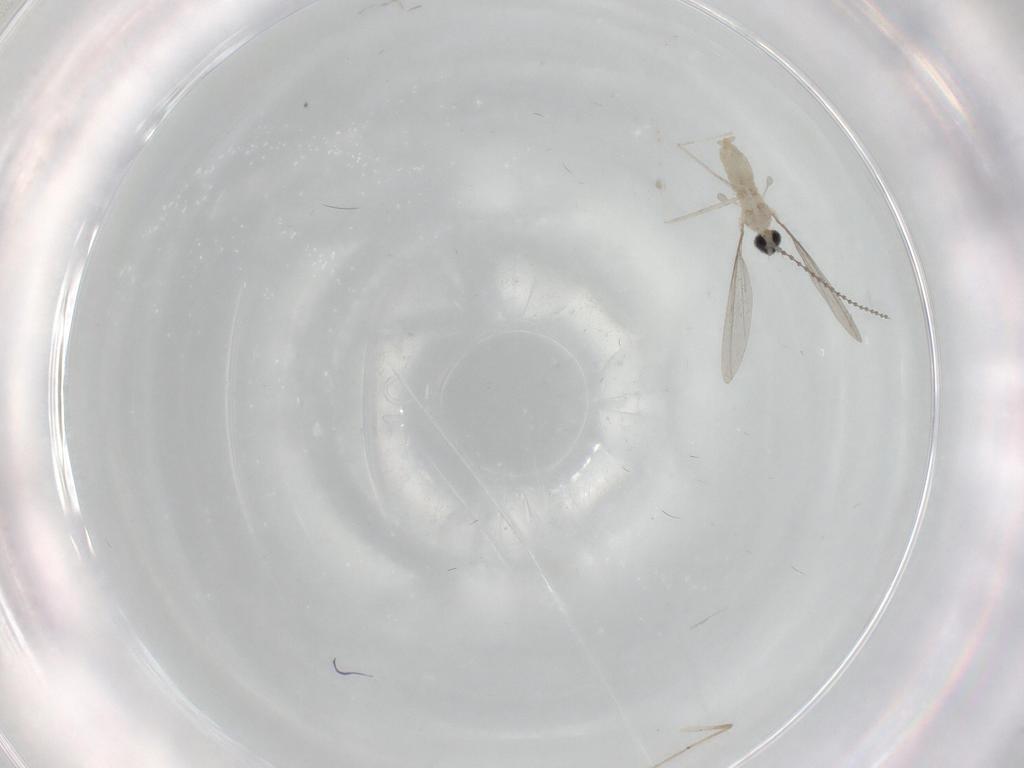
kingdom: Animalia
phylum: Arthropoda
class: Insecta
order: Diptera
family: Cecidomyiidae
